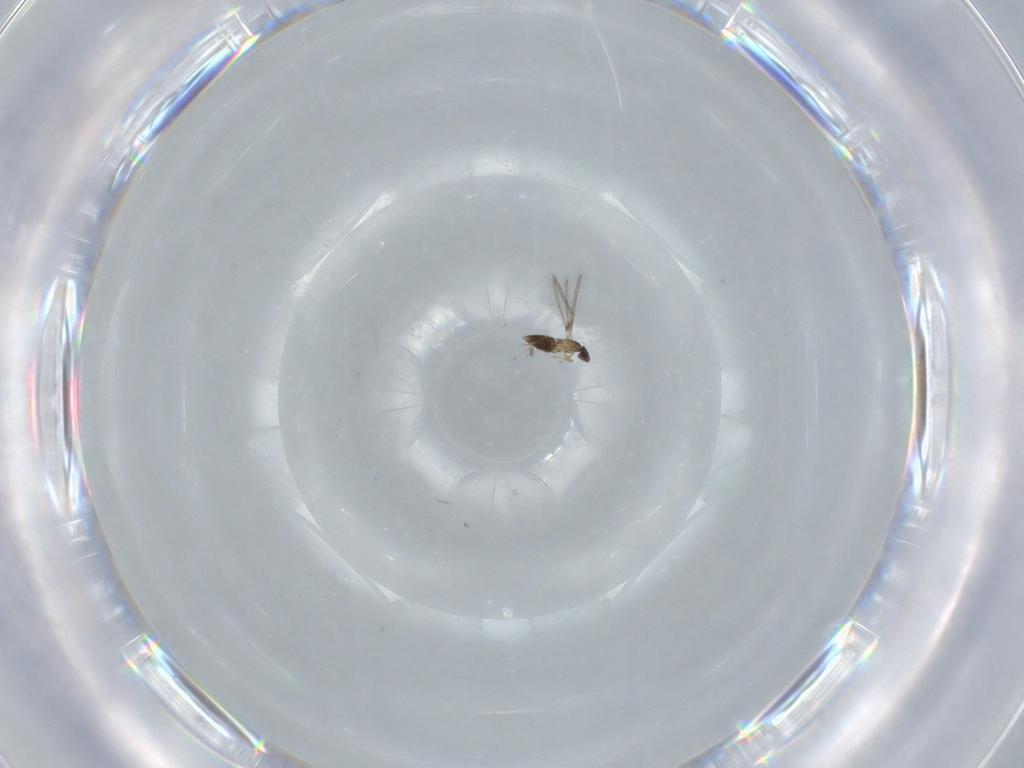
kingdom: Animalia
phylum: Arthropoda
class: Insecta
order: Hymenoptera
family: Mymaridae
